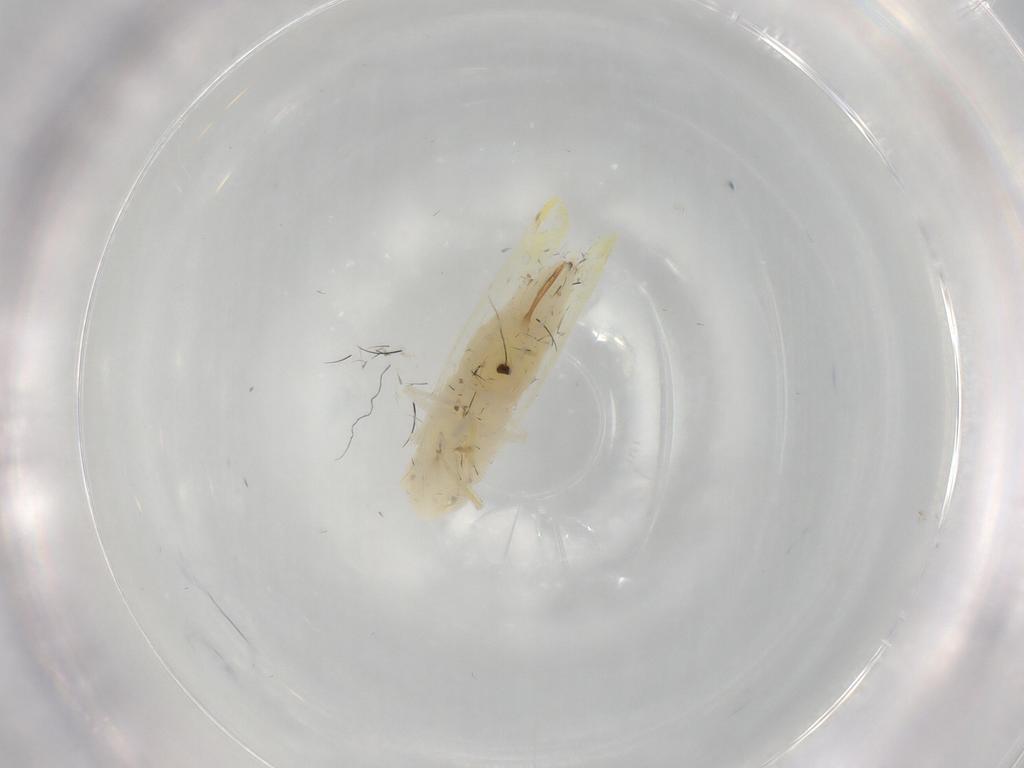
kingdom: Animalia
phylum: Arthropoda
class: Insecta
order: Hemiptera
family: Cicadellidae
